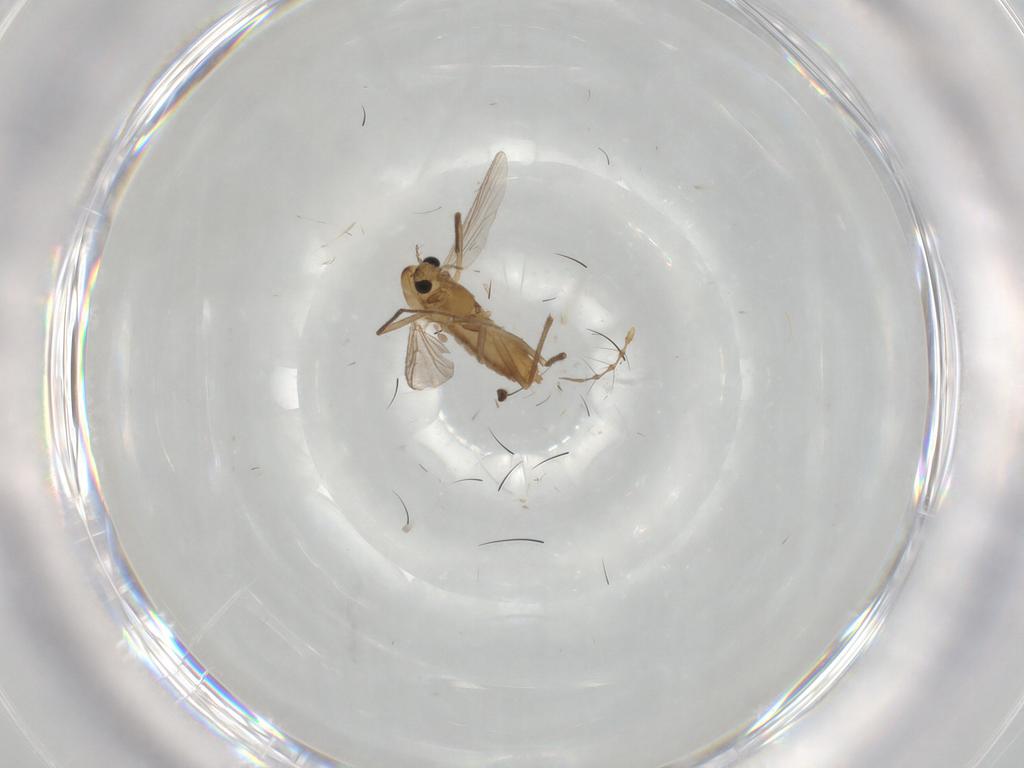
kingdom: Animalia
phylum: Arthropoda
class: Insecta
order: Diptera
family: Chironomidae
